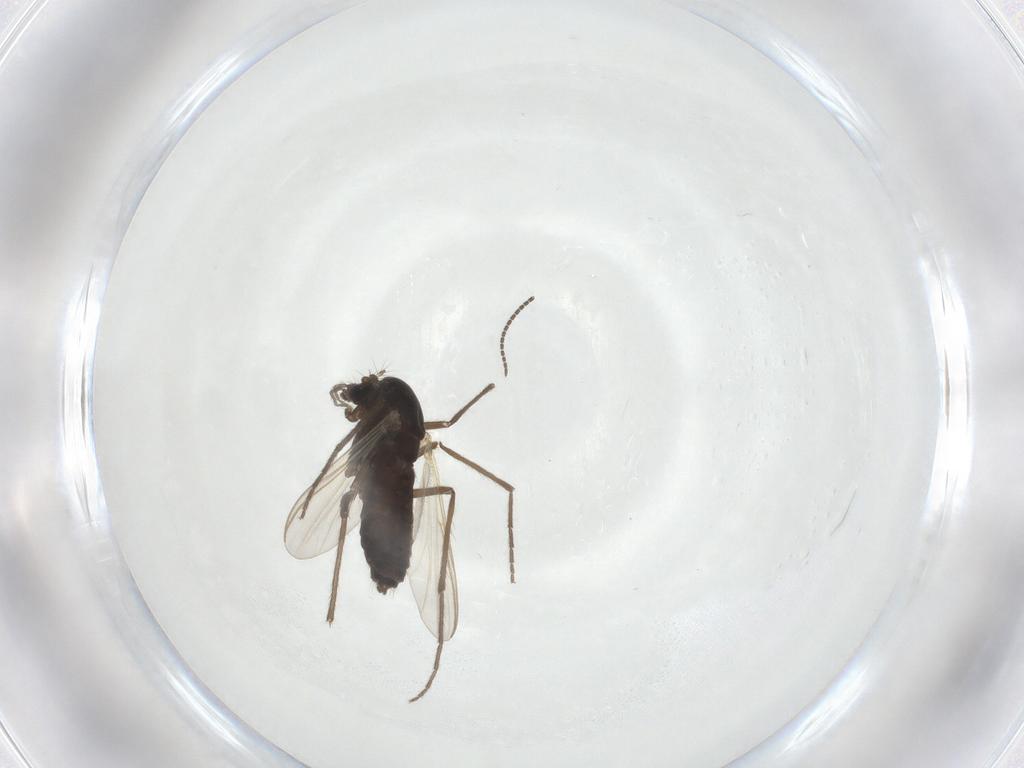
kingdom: Animalia
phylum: Arthropoda
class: Insecta
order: Diptera
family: Chironomidae
